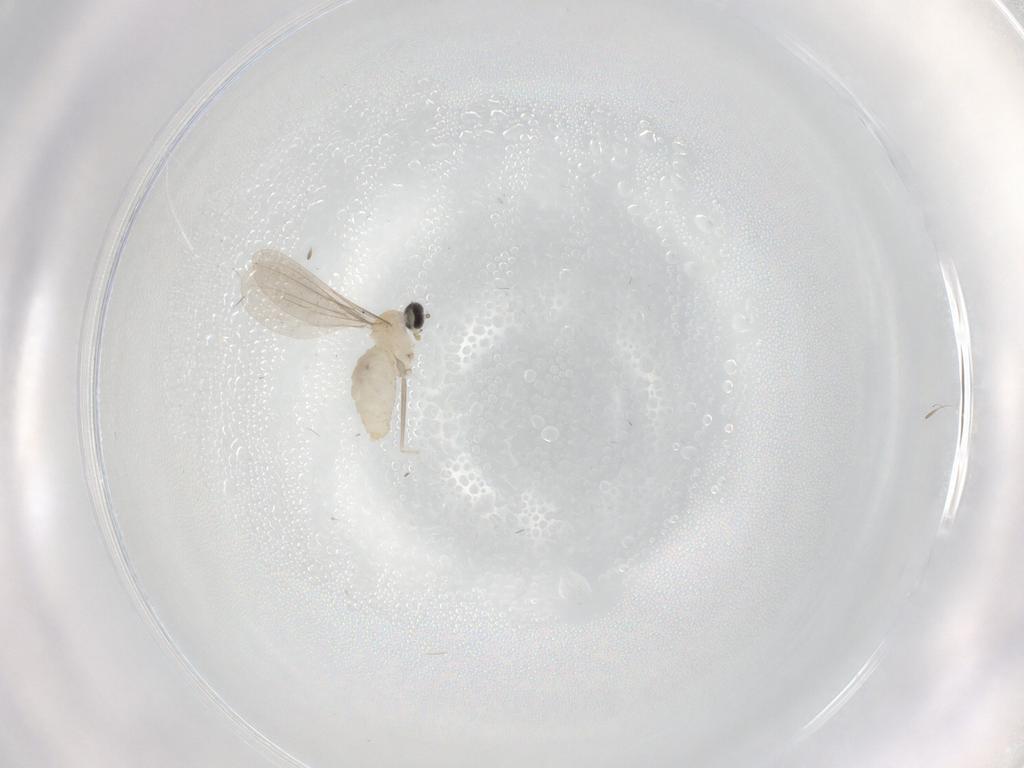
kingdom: Animalia
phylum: Arthropoda
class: Insecta
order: Diptera
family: Cecidomyiidae
